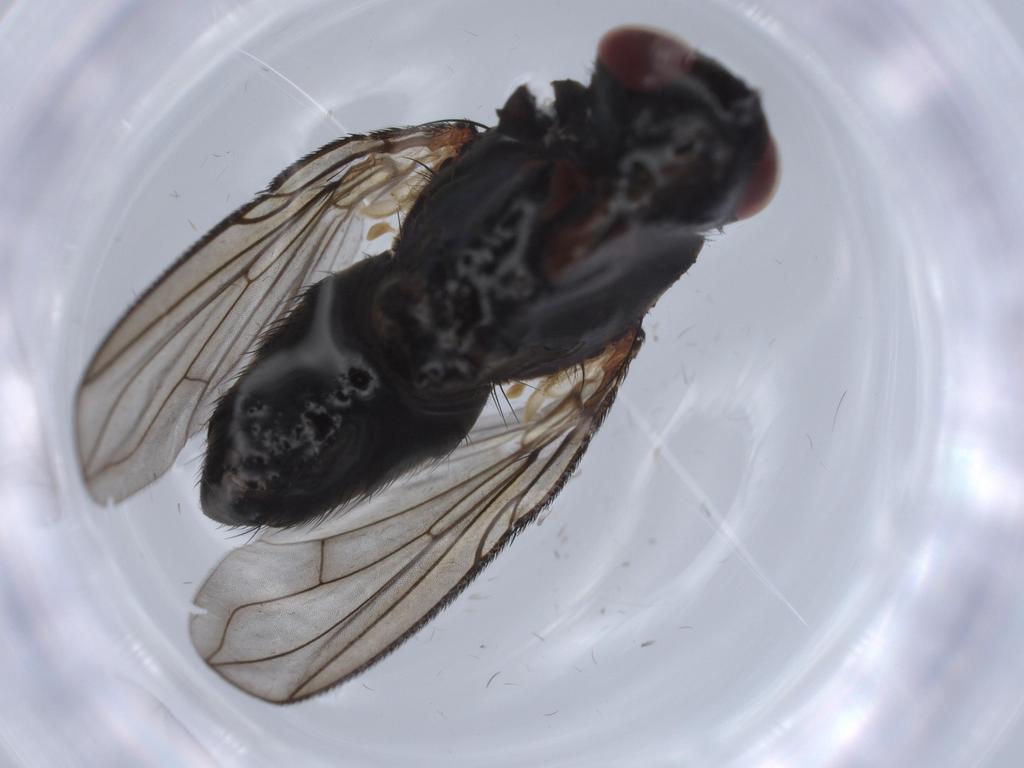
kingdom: Animalia
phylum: Arthropoda
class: Insecta
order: Diptera
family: Calliphoridae
